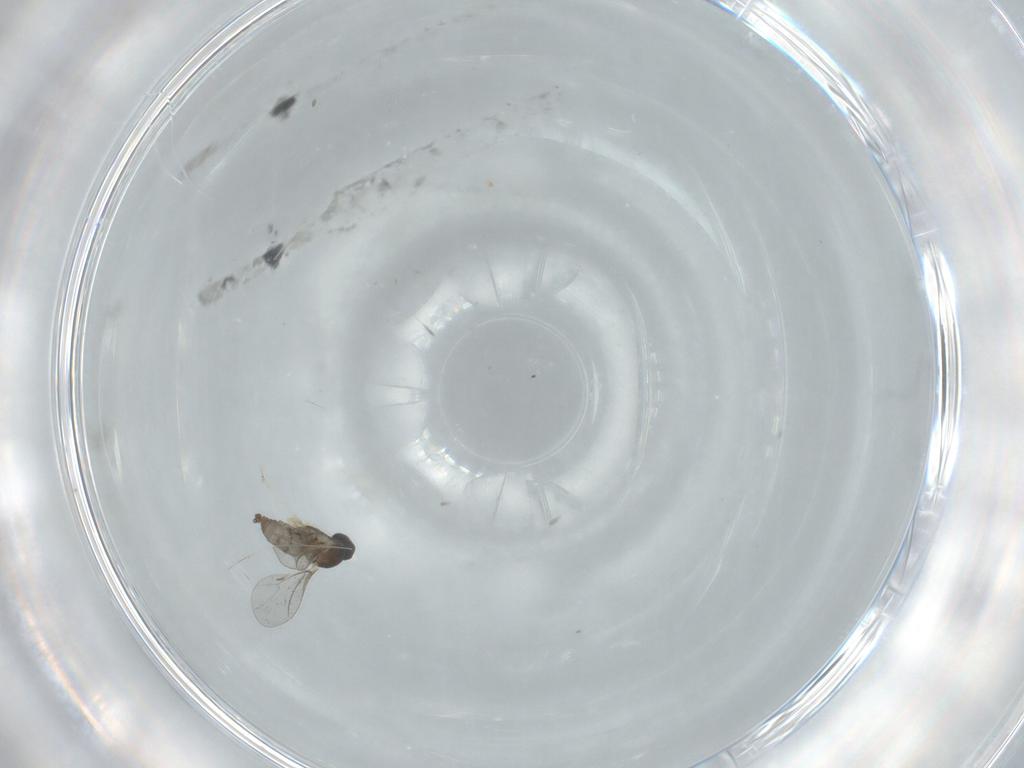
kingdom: Animalia
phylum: Arthropoda
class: Insecta
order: Diptera
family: Cecidomyiidae
